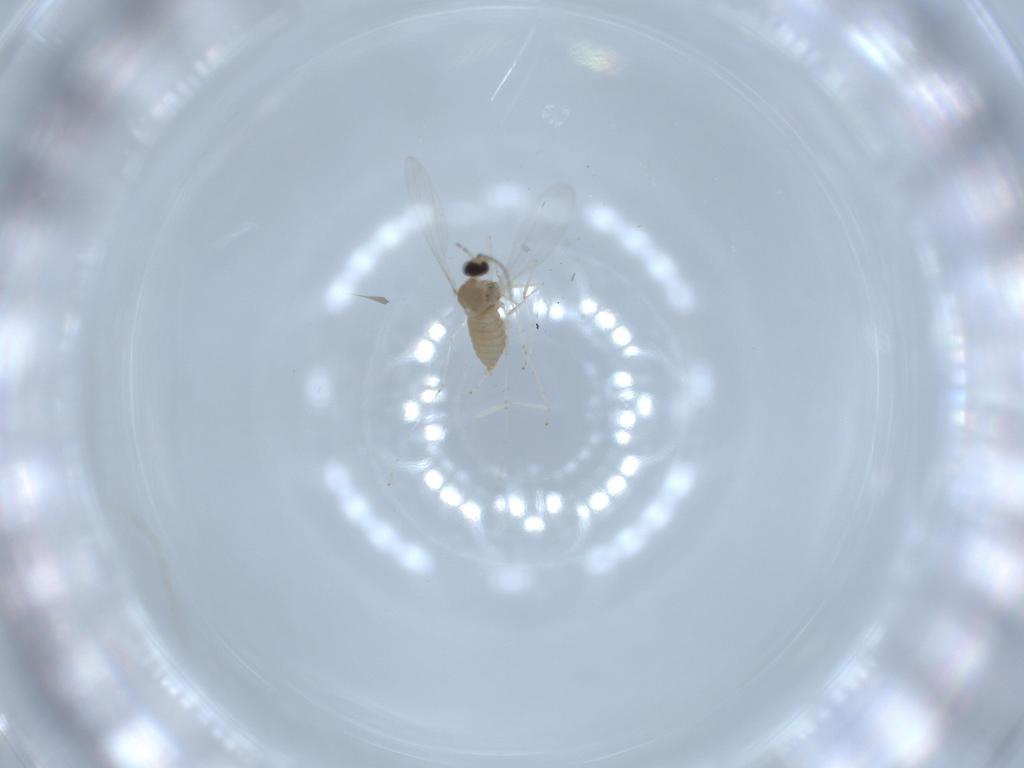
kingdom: Animalia
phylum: Arthropoda
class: Insecta
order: Diptera
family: Cecidomyiidae
